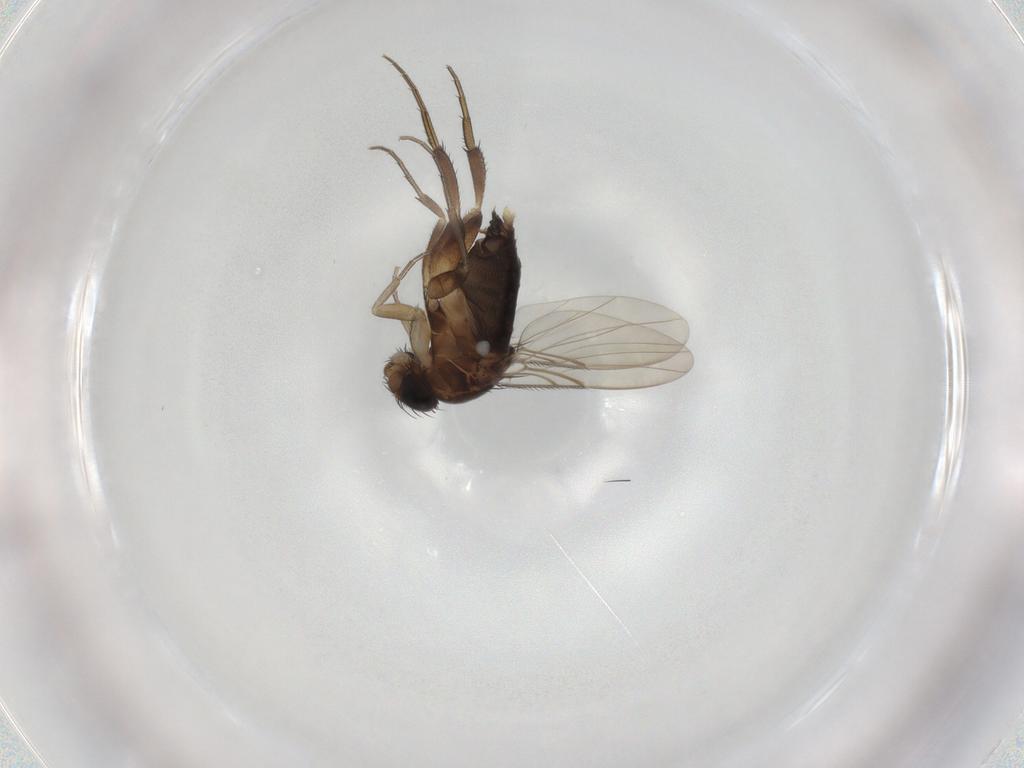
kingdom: Animalia
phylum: Arthropoda
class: Insecta
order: Diptera
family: Phoridae
